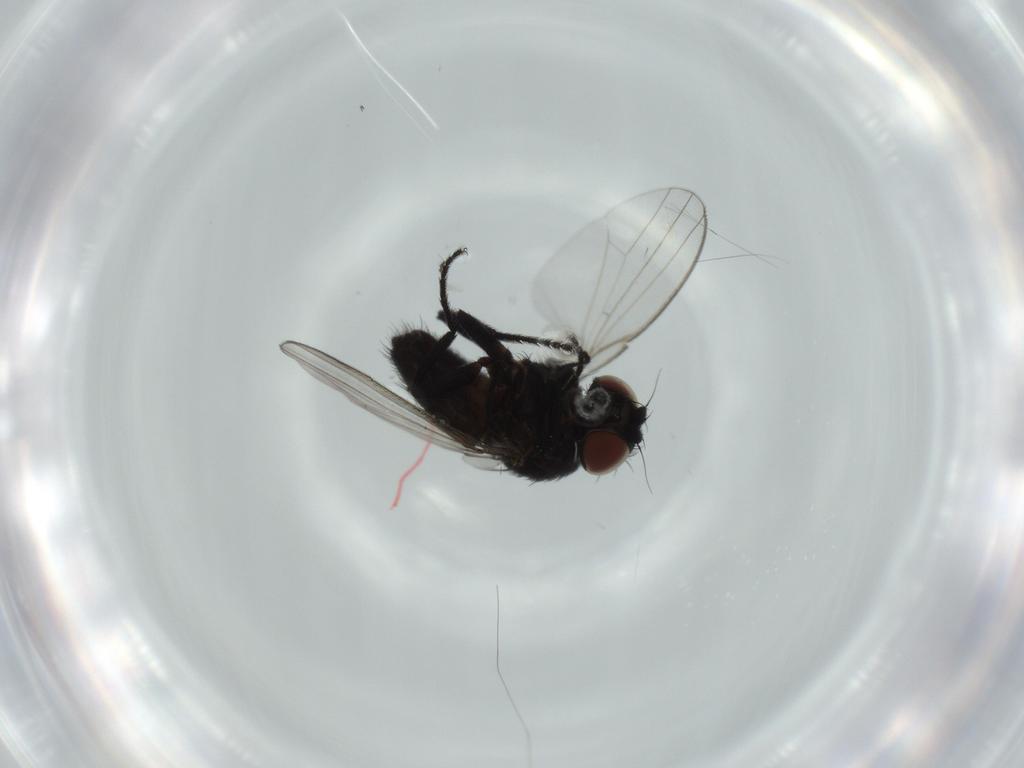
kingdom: Animalia
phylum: Arthropoda
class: Insecta
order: Diptera
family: Milichiidae
